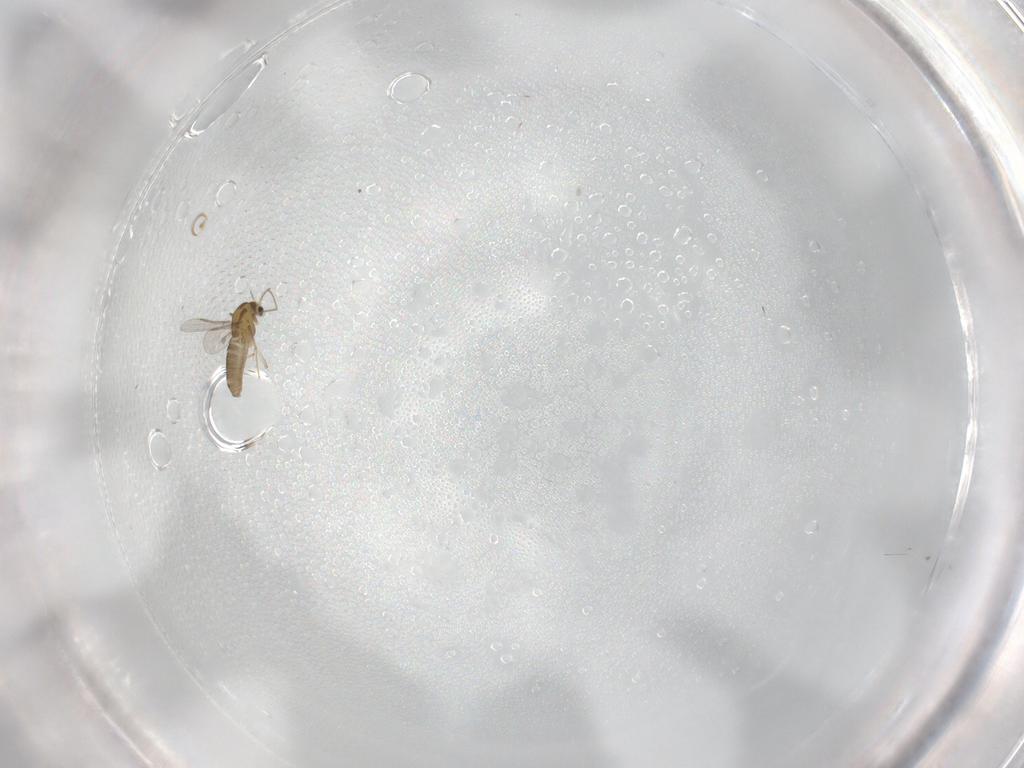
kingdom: Animalia
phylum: Arthropoda
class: Insecta
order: Diptera
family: Chironomidae
